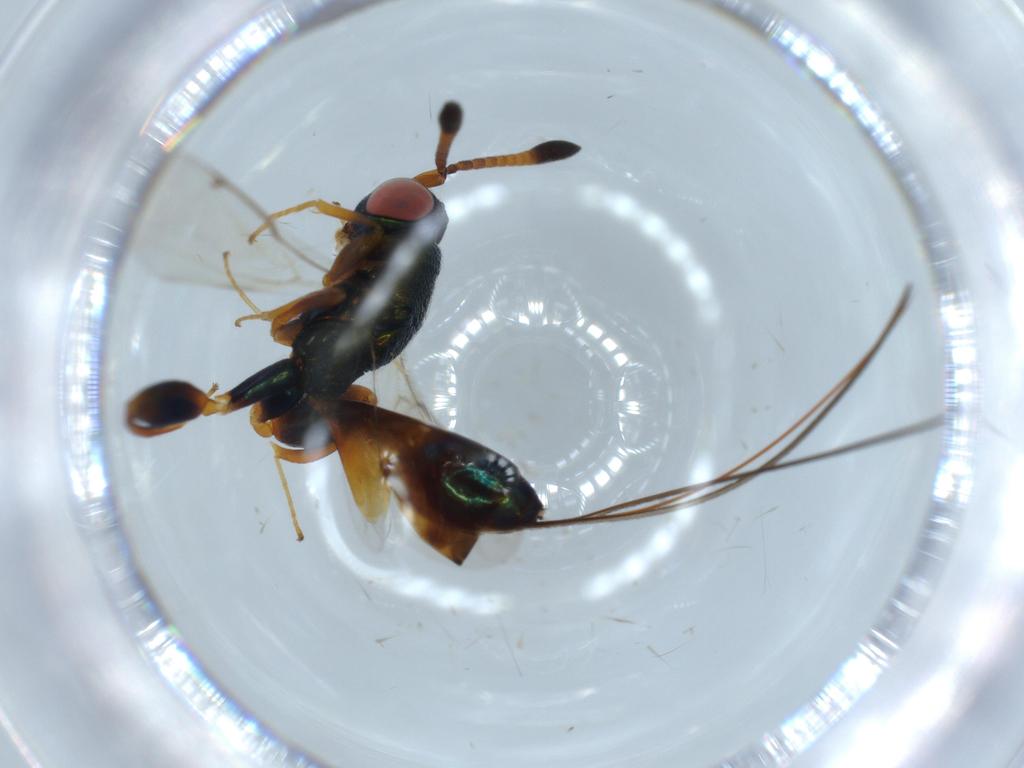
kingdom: Animalia
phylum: Arthropoda
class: Insecta
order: Hymenoptera
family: Torymidae
